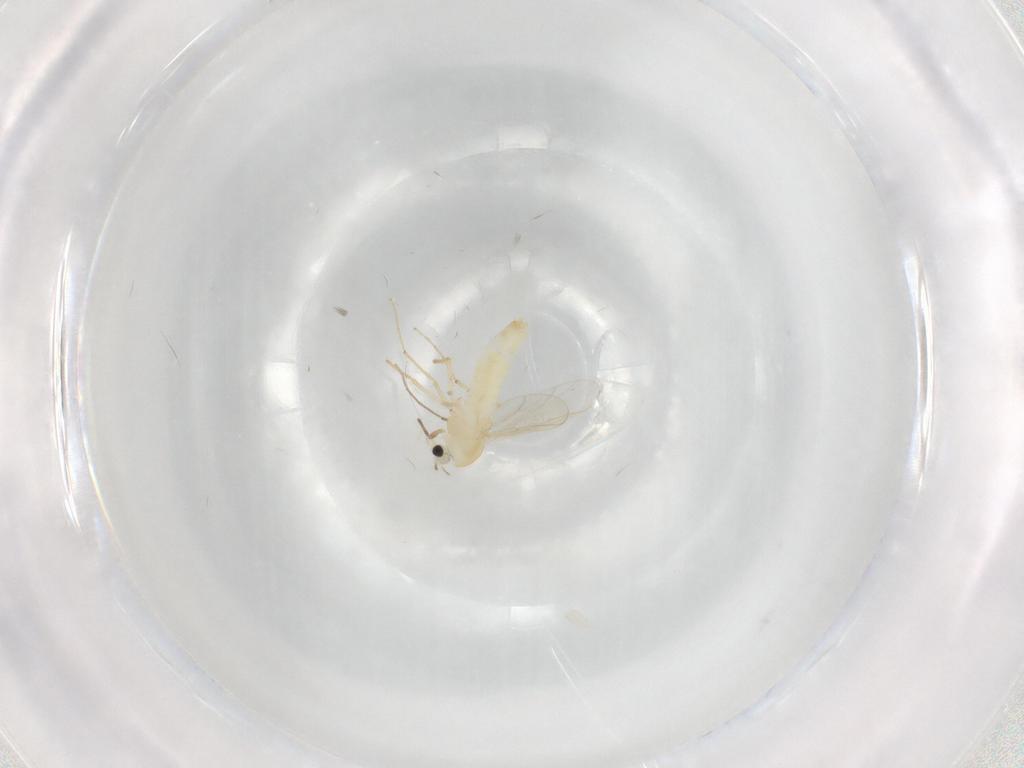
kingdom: Animalia
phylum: Arthropoda
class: Insecta
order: Diptera
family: Chironomidae
